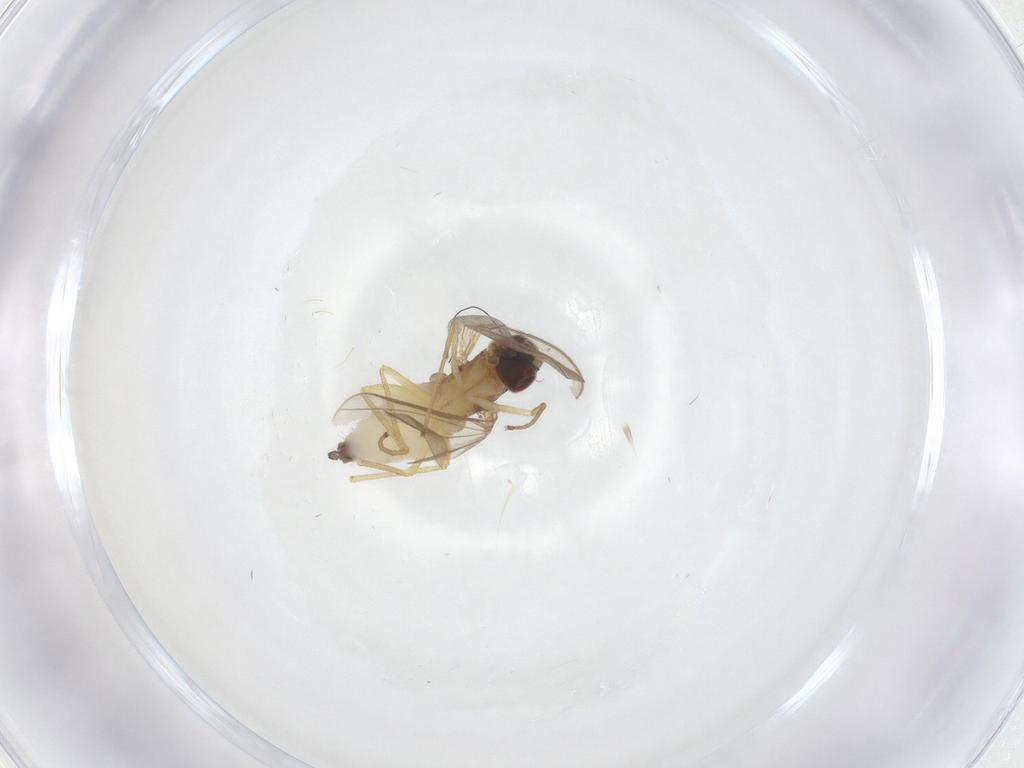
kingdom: Animalia
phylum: Arthropoda
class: Insecta
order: Diptera
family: Dolichopodidae
